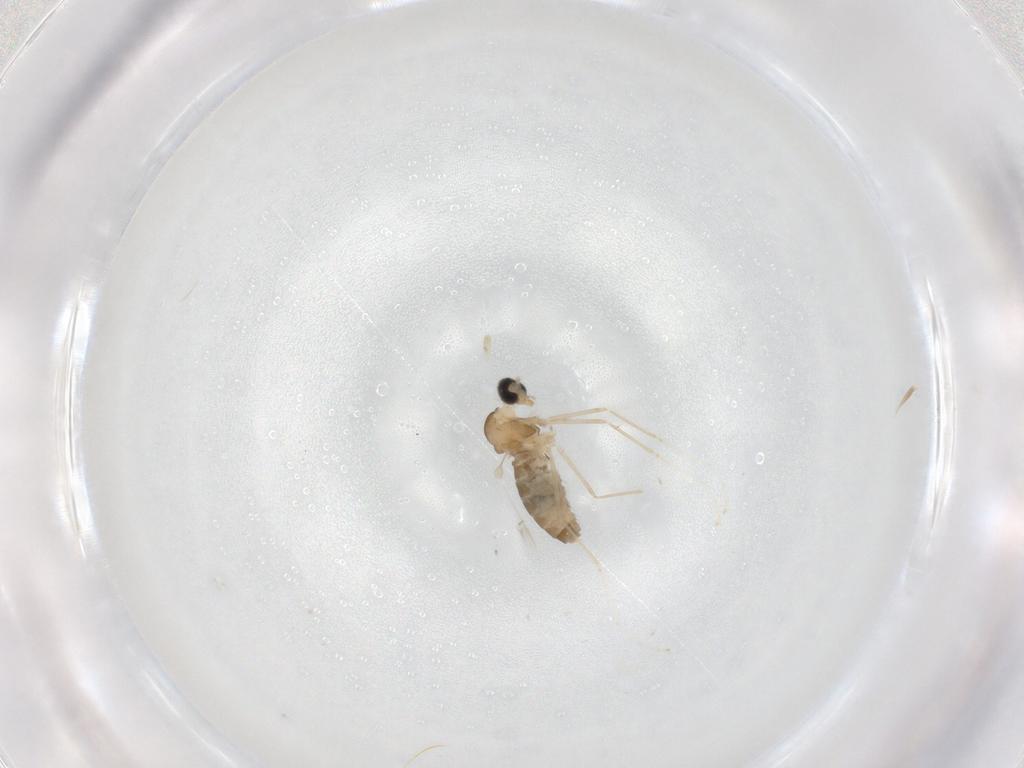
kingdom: Animalia
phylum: Arthropoda
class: Insecta
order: Diptera
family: Cecidomyiidae
